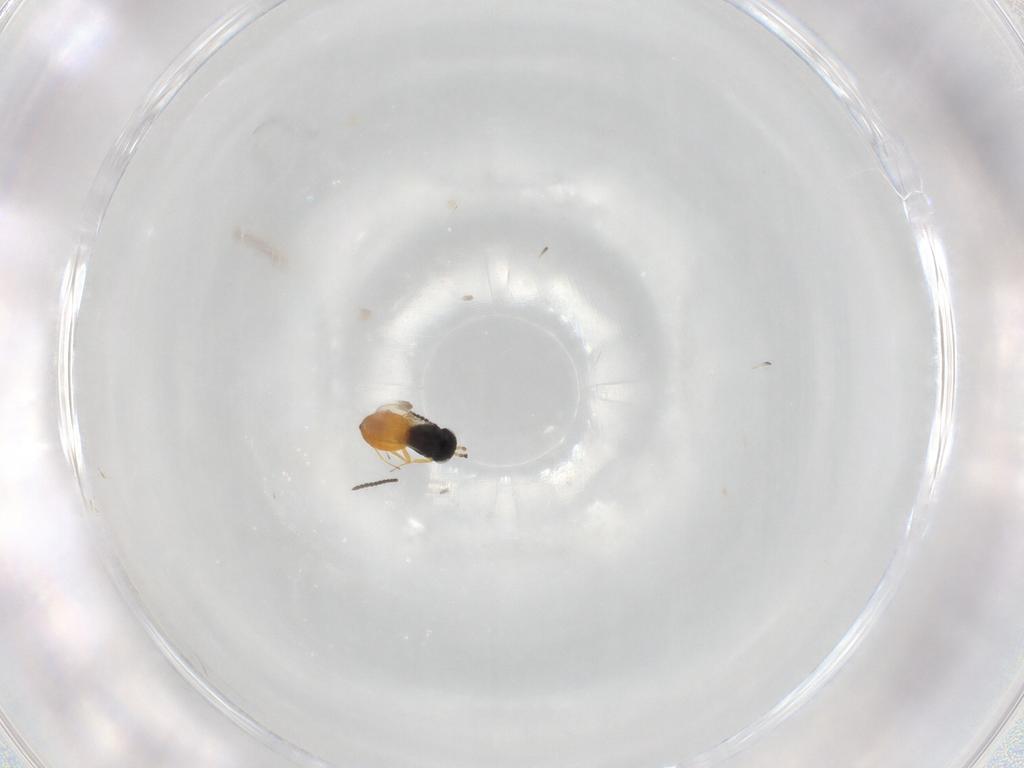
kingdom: Animalia
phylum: Arthropoda
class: Insecta
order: Hymenoptera
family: Scelionidae
